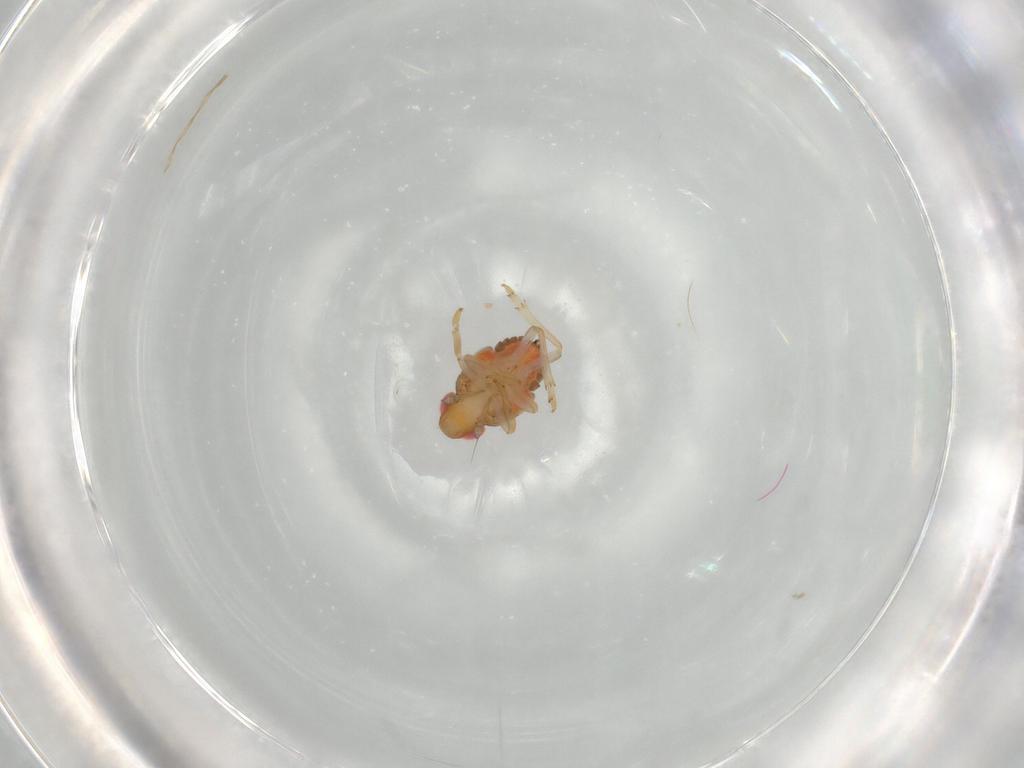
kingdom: Animalia
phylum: Arthropoda
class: Insecta
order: Hemiptera
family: Issidae
